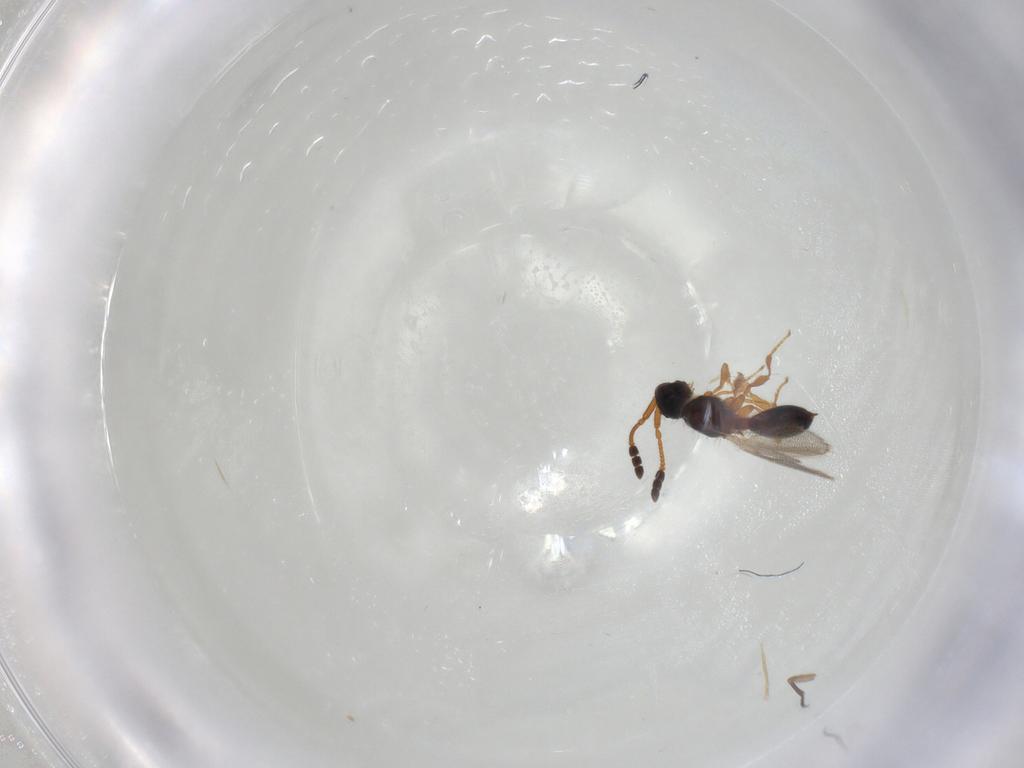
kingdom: Animalia
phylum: Arthropoda
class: Insecta
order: Hymenoptera
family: Diapriidae
